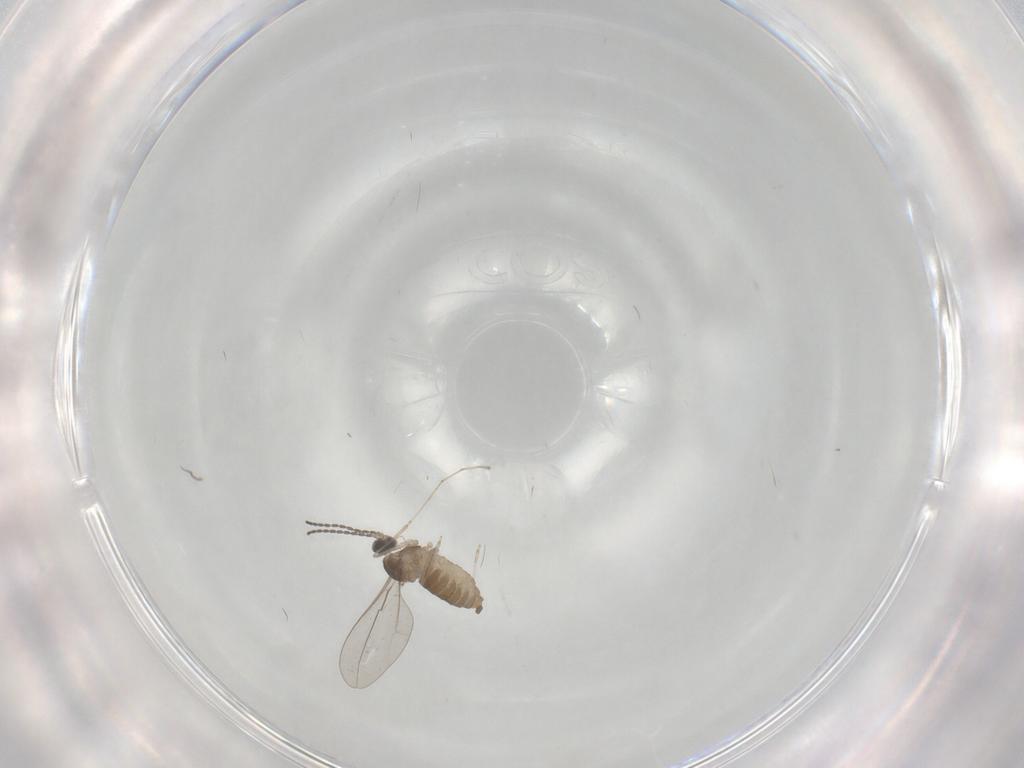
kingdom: Animalia
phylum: Arthropoda
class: Insecta
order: Diptera
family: Cecidomyiidae
